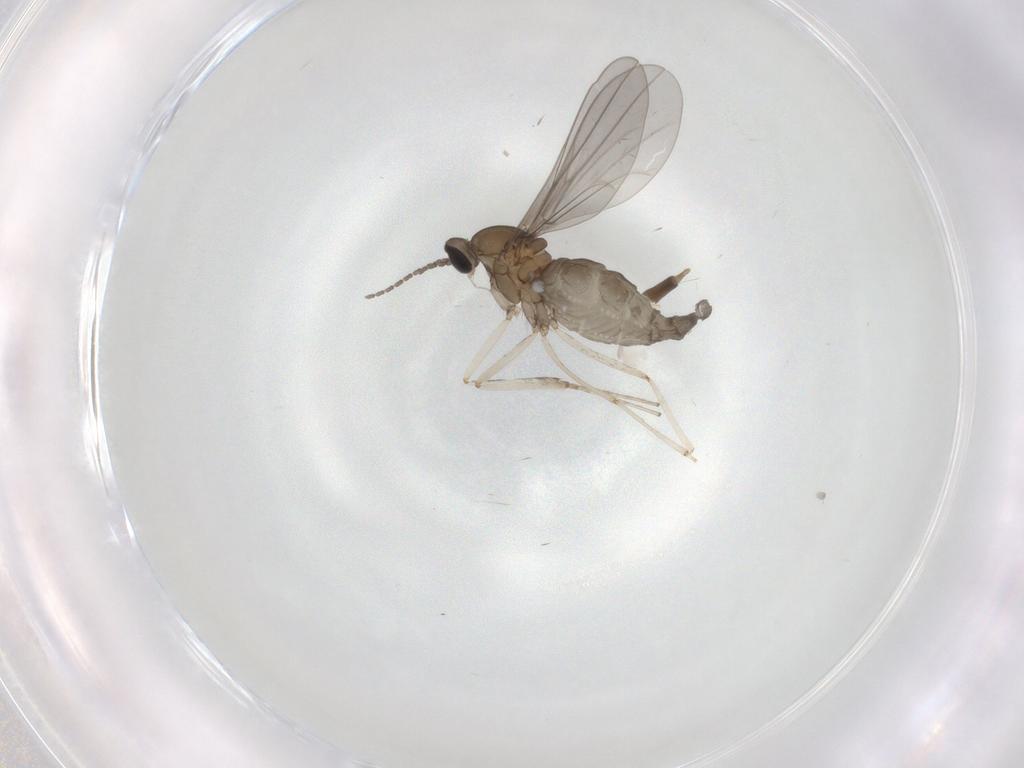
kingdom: Animalia
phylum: Arthropoda
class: Insecta
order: Diptera
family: Cecidomyiidae
